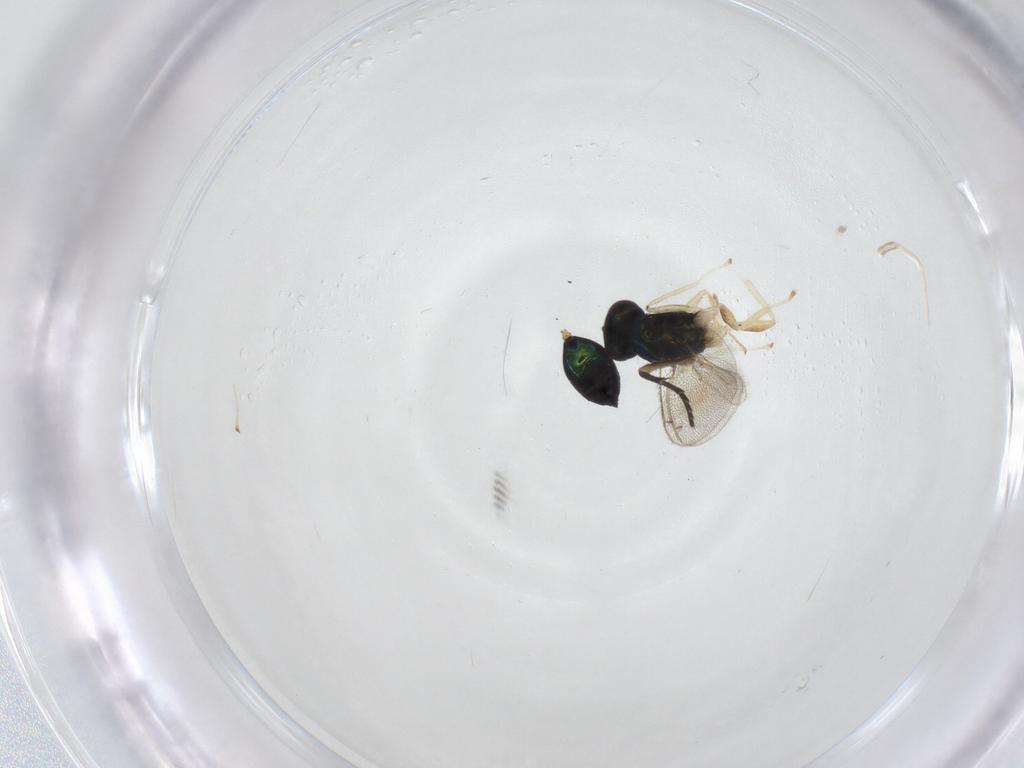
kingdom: Animalia
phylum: Arthropoda
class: Insecta
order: Hymenoptera
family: Eulophidae
